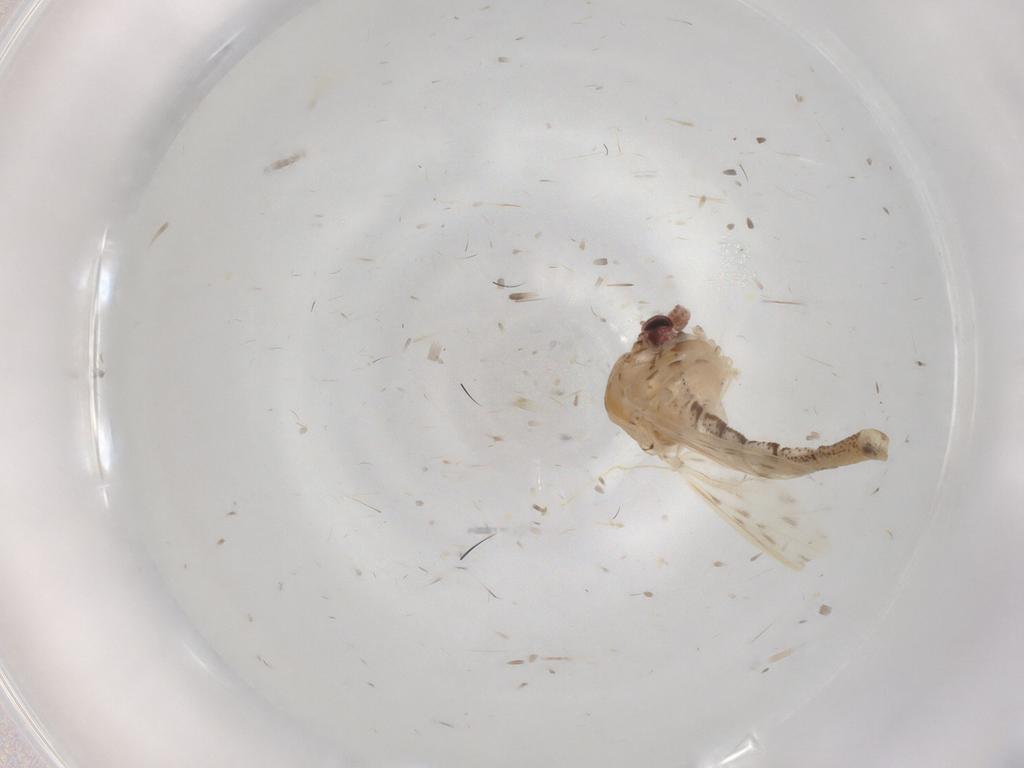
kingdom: Animalia
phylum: Arthropoda
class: Insecta
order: Diptera
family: Chaoboridae
